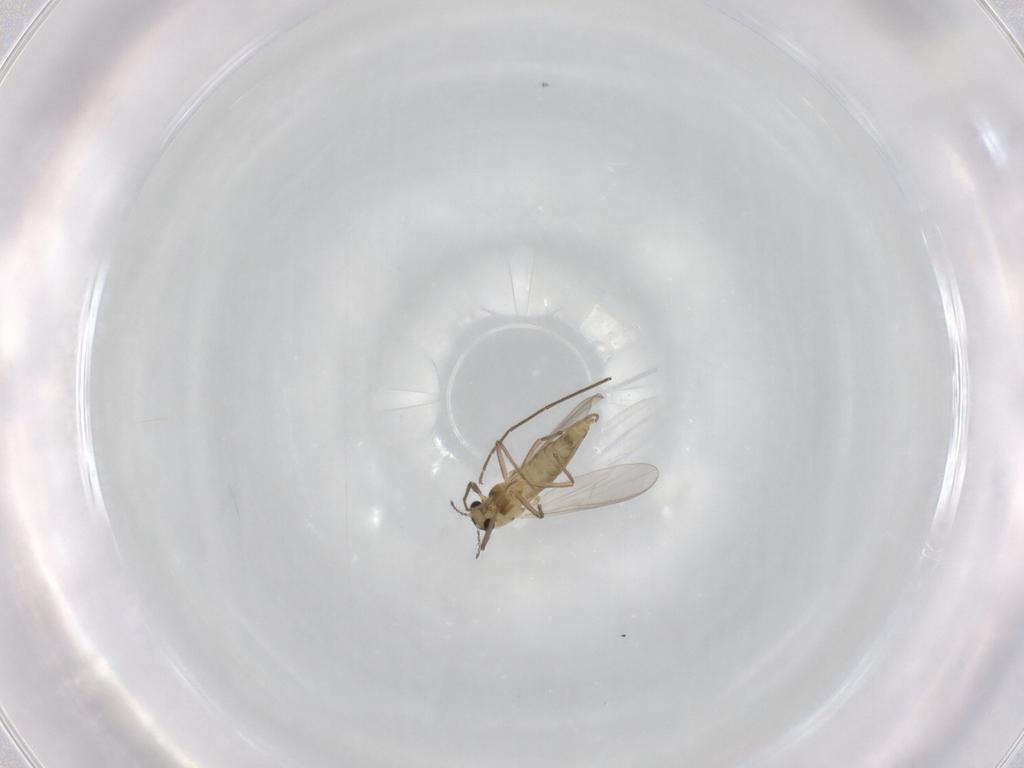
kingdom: Animalia
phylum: Arthropoda
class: Insecta
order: Diptera
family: Chironomidae
